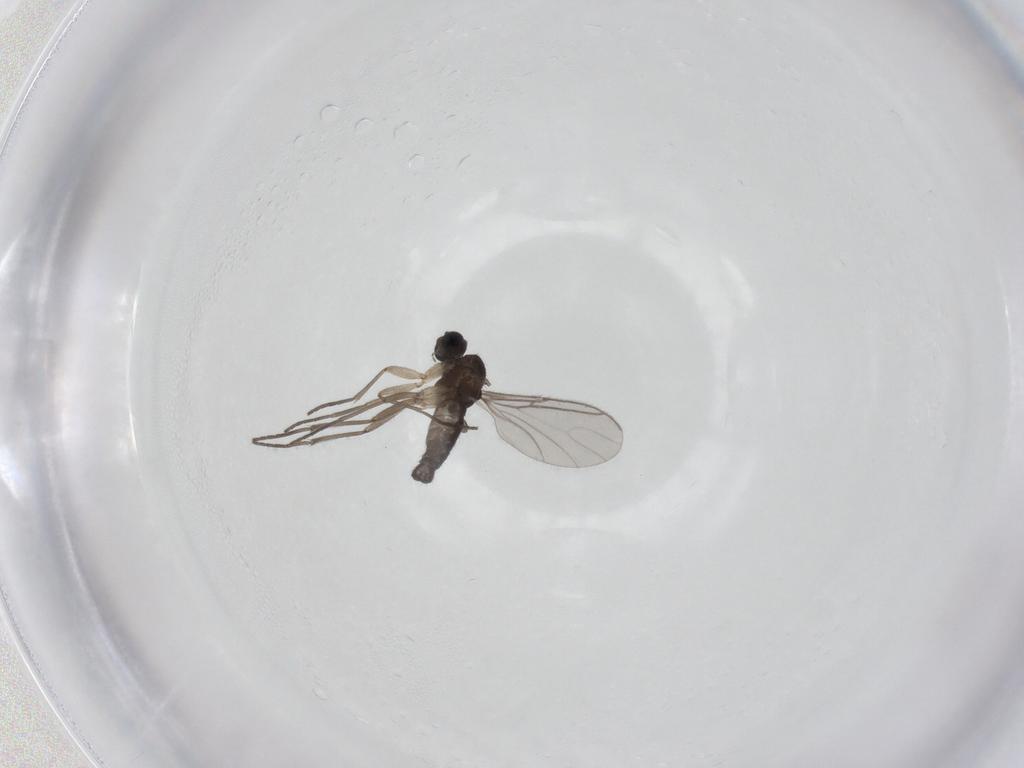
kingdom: Animalia
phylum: Arthropoda
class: Insecta
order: Diptera
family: Sciaridae
